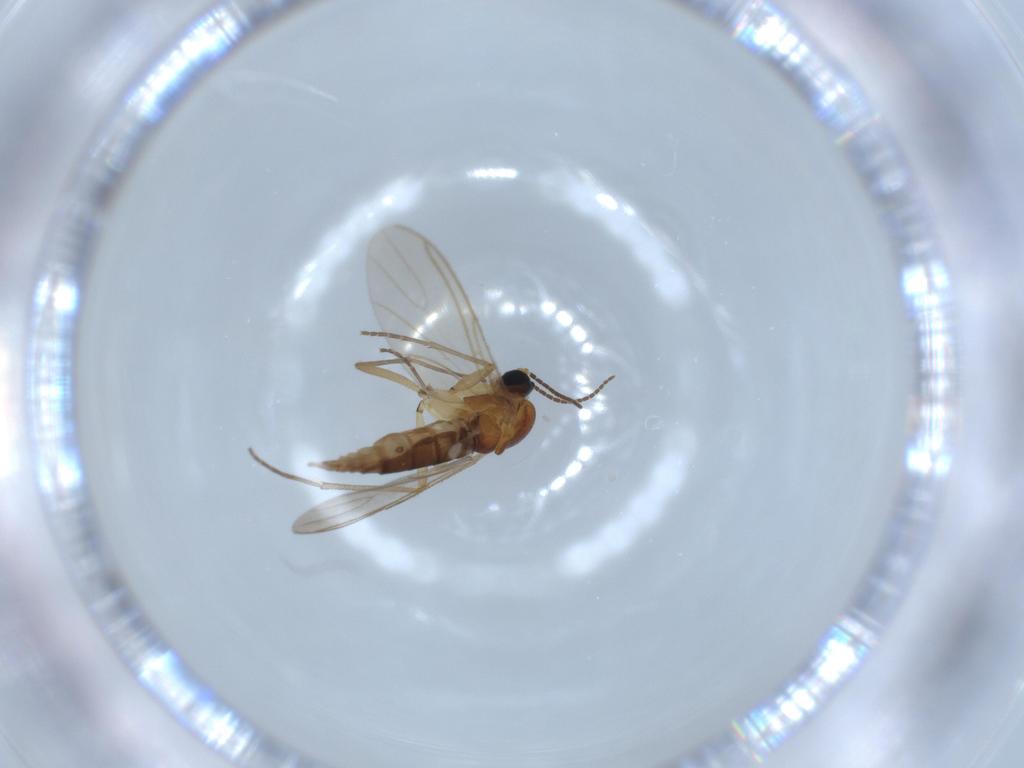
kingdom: Animalia
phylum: Arthropoda
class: Insecta
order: Diptera
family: Sciaridae
